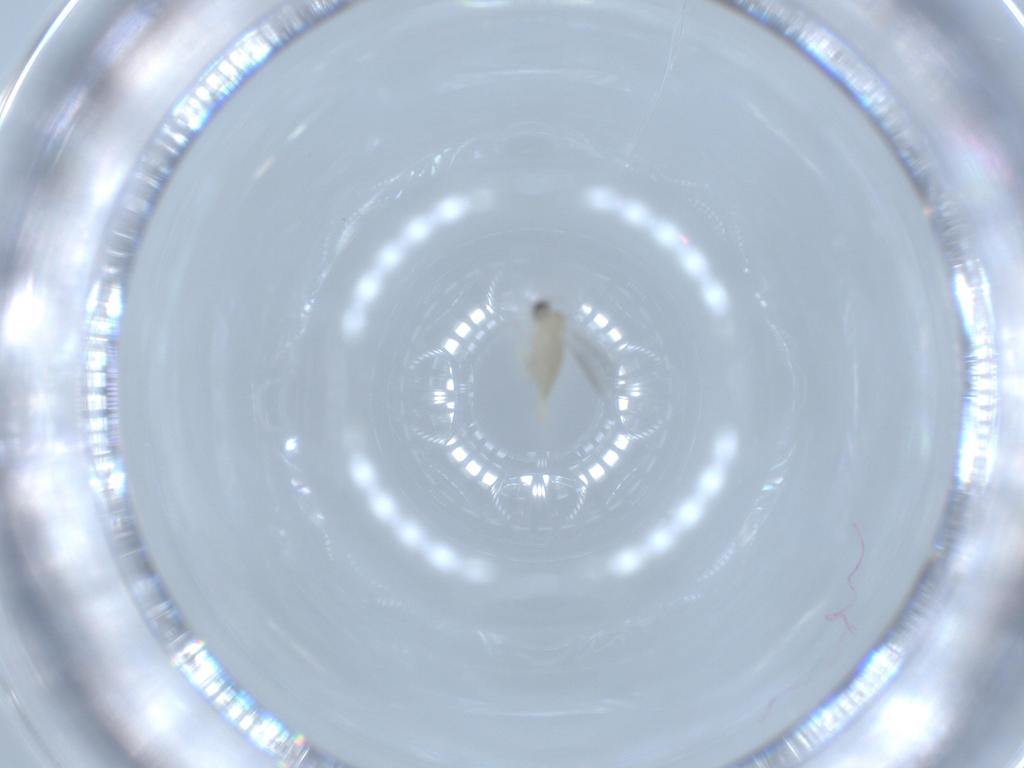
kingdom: Animalia
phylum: Arthropoda
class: Insecta
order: Diptera
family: Cecidomyiidae
